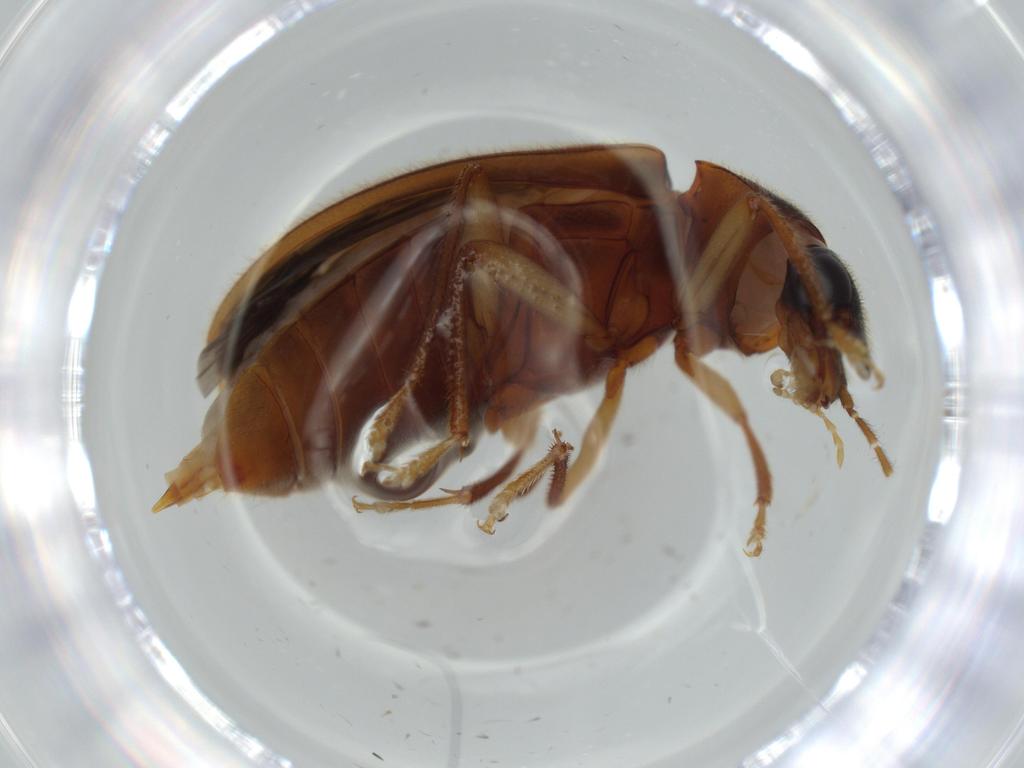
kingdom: Animalia
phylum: Arthropoda
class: Insecta
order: Coleoptera
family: Ptilodactylidae
